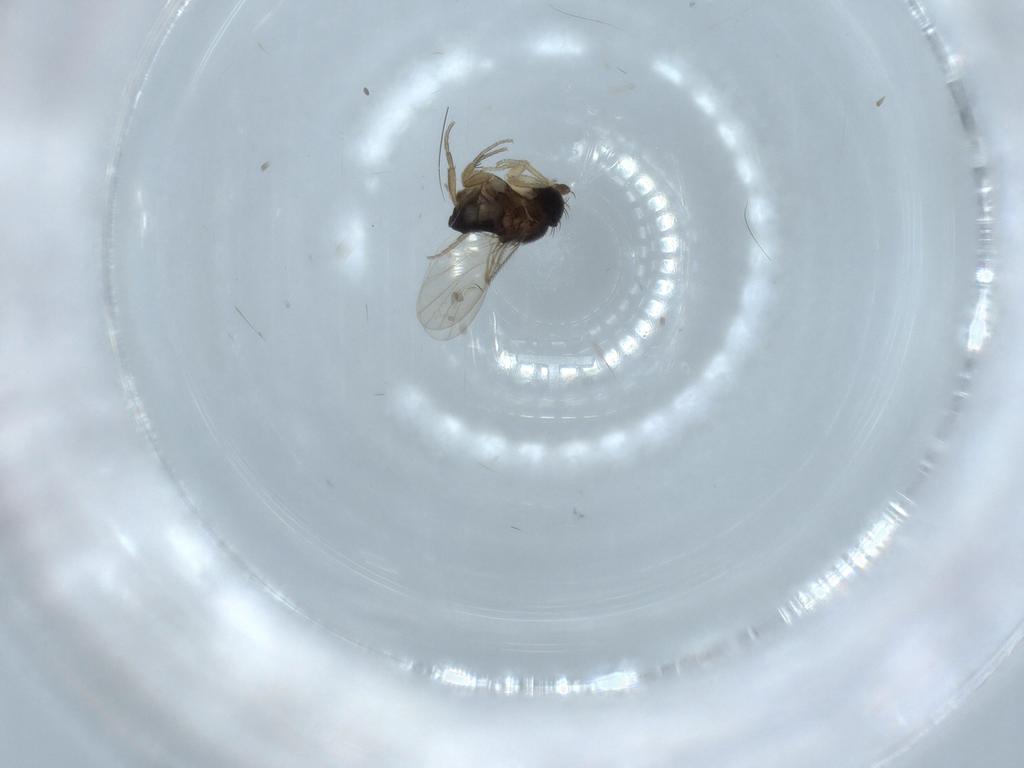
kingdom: Animalia
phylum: Arthropoda
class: Insecta
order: Diptera
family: Phoridae
